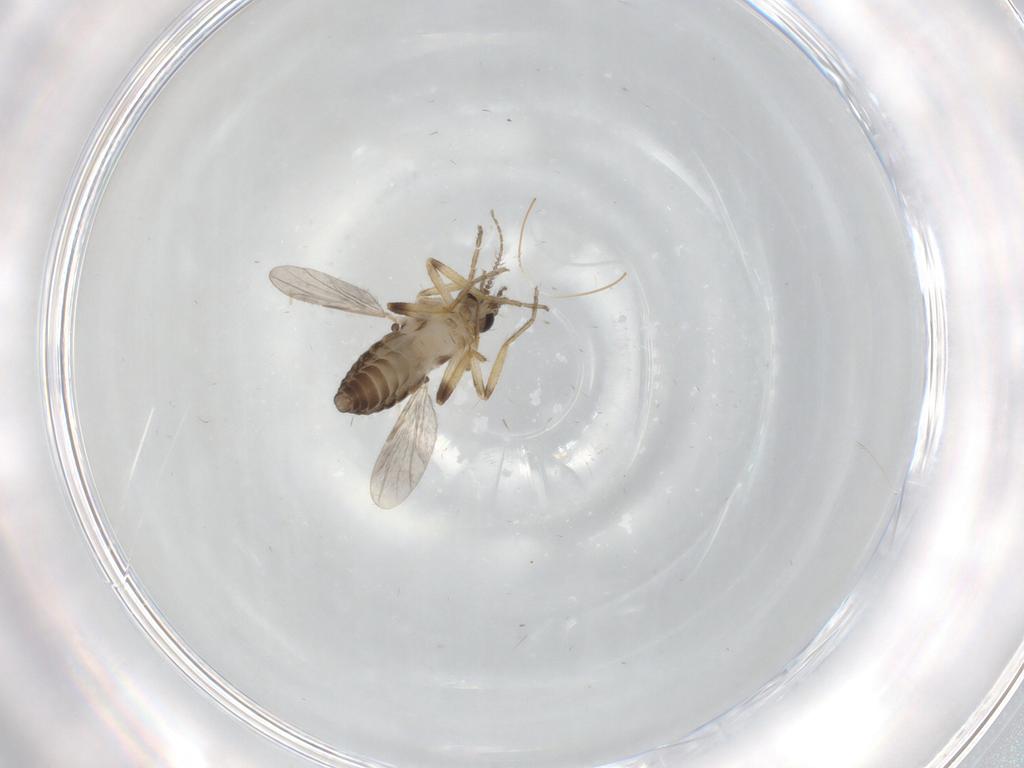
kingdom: Animalia
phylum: Arthropoda
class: Insecta
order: Diptera
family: Ceratopogonidae
